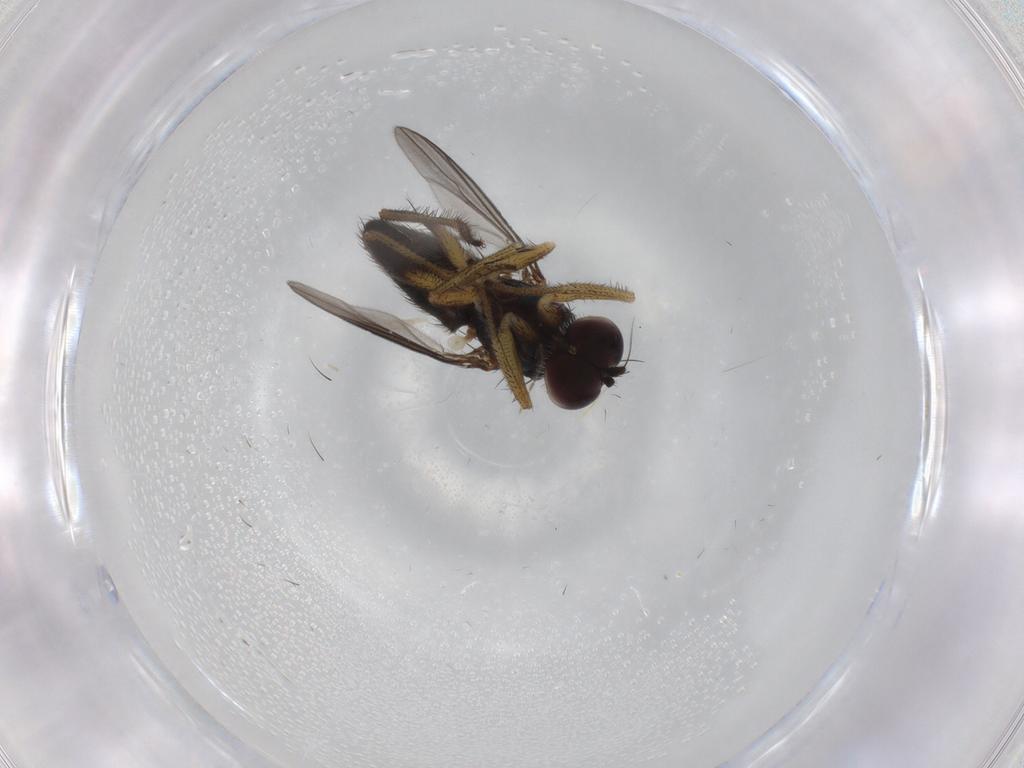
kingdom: Animalia
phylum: Arthropoda
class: Insecta
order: Diptera
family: Dolichopodidae
